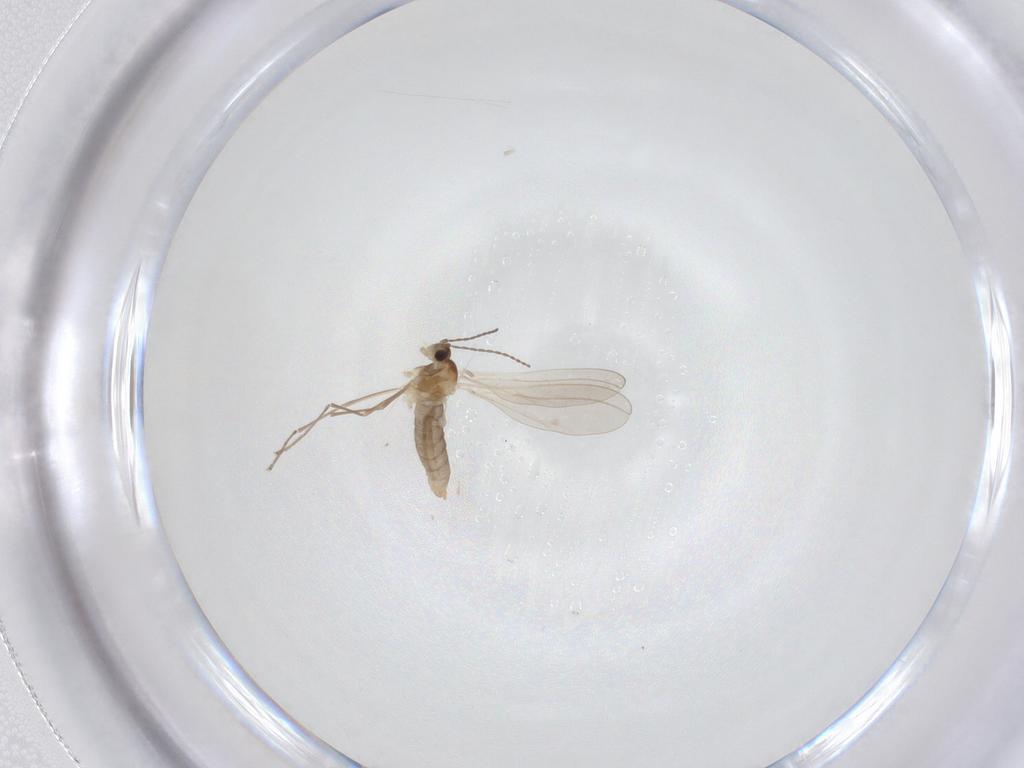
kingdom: Animalia
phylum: Arthropoda
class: Insecta
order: Diptera
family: Cecidomyiidae
